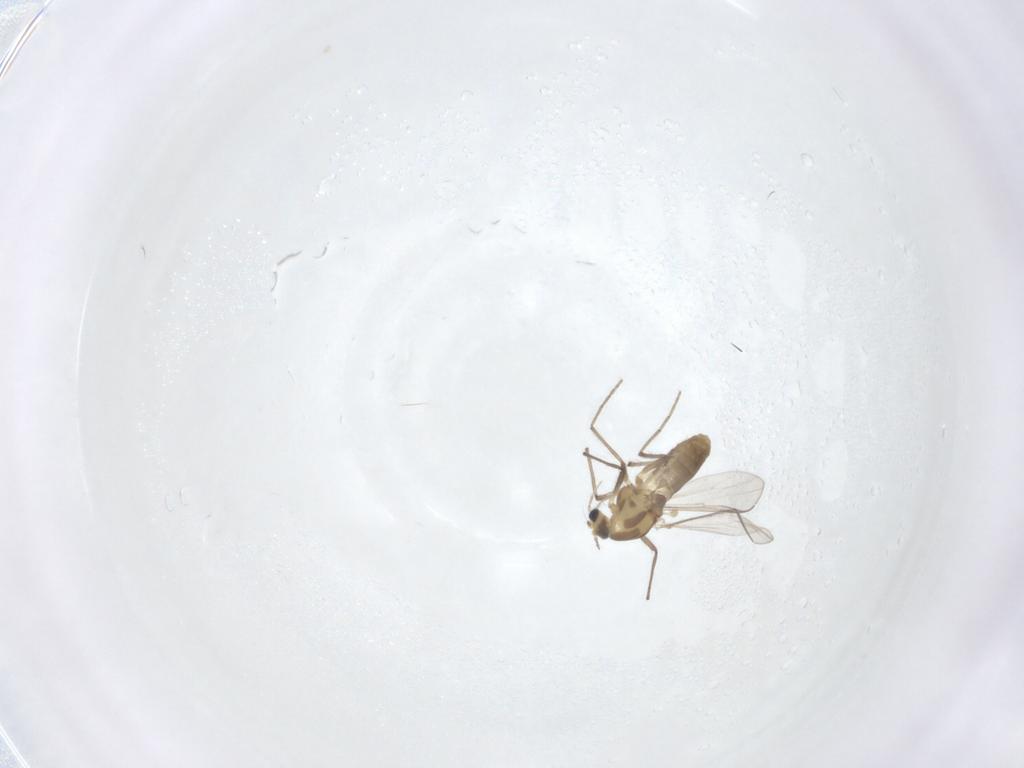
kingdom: Animalia
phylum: Arthropoda
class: Insecta
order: Diptera
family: Chironomidae
